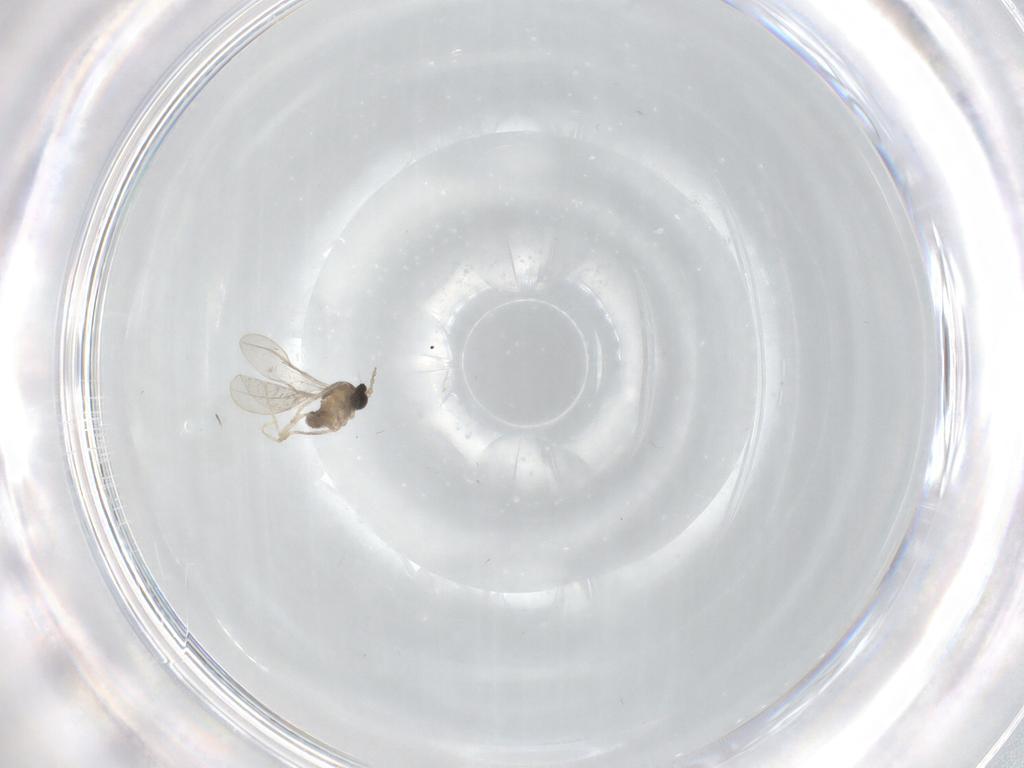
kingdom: Animalia
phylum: Arthropoda
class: Insecta
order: Diptera
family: Cecidomyiidae
